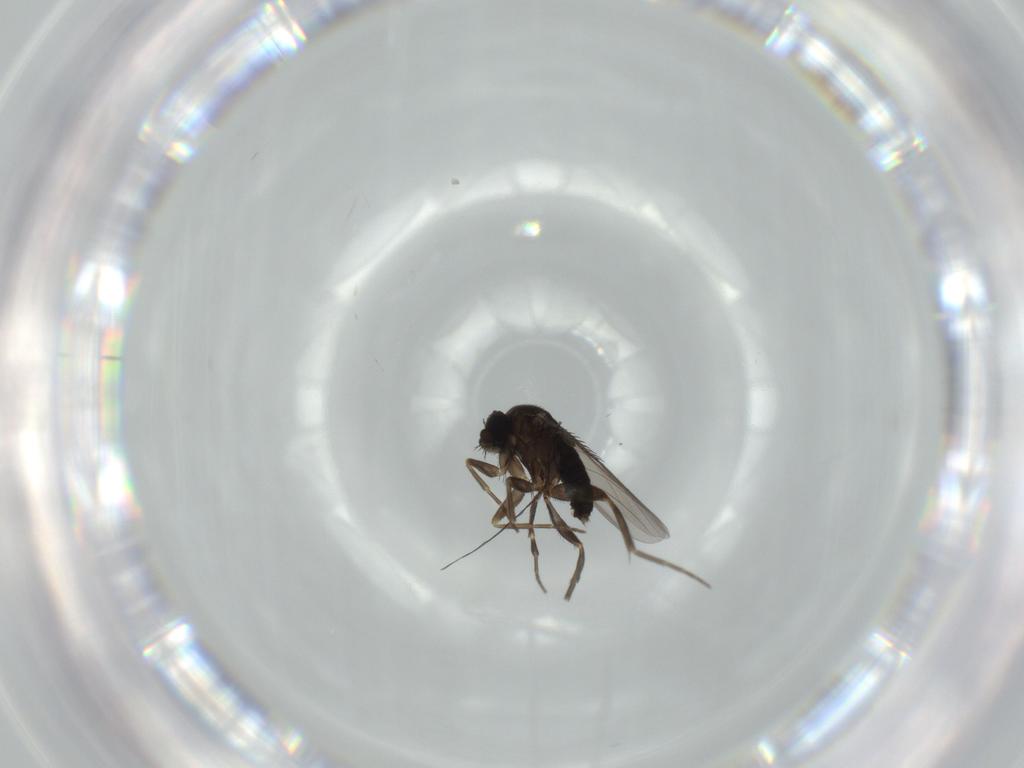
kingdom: Animalia
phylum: Arthropoda
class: Insecta
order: Diptera
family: Phoridae
